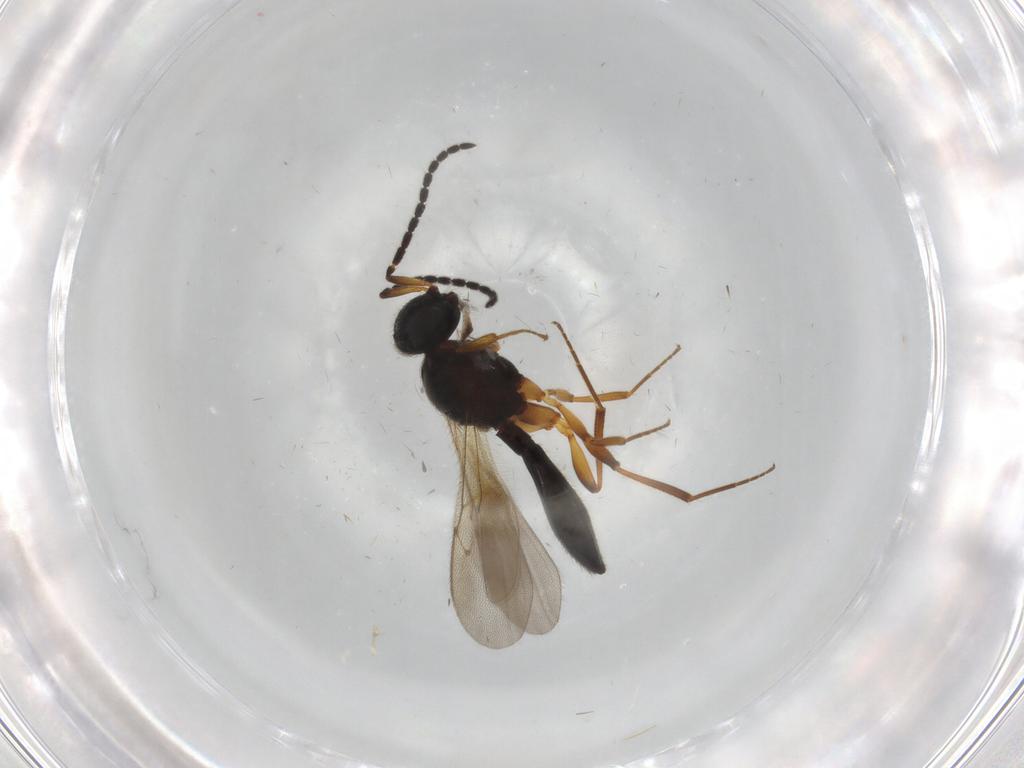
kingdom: Animalia
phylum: Arthropoda
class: Insecta
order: Hymenoptera
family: Scelionidae
